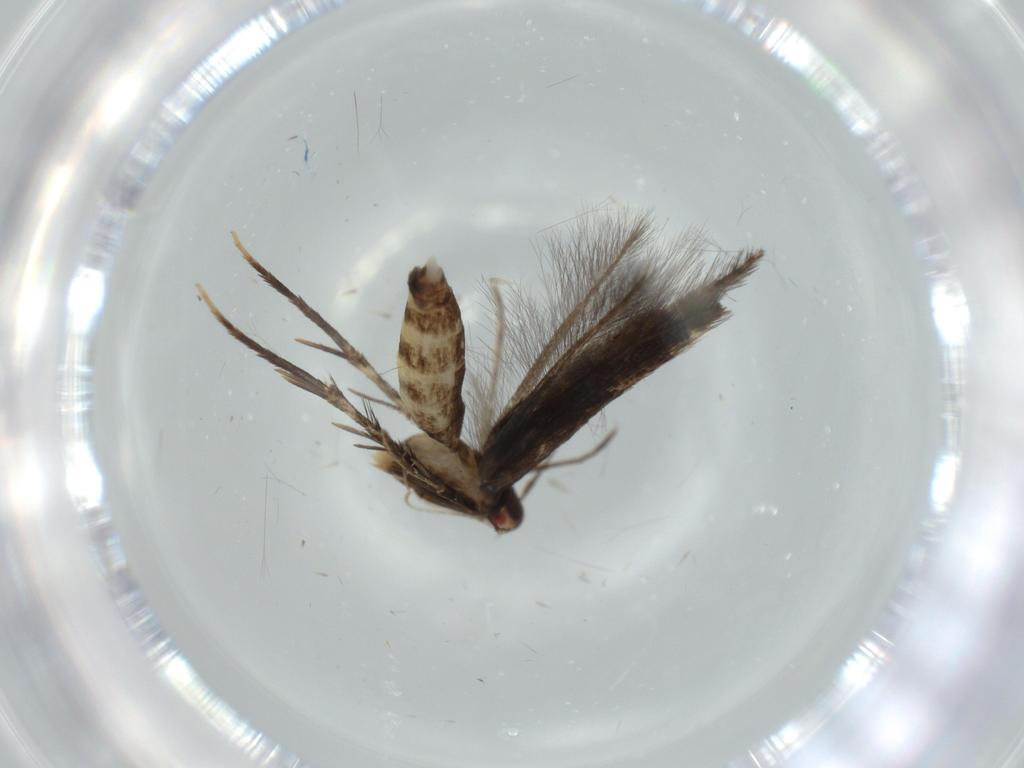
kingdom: Animalia
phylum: Arthropoda
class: Insecta
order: Lepidoptera
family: Cosmopterigidae
